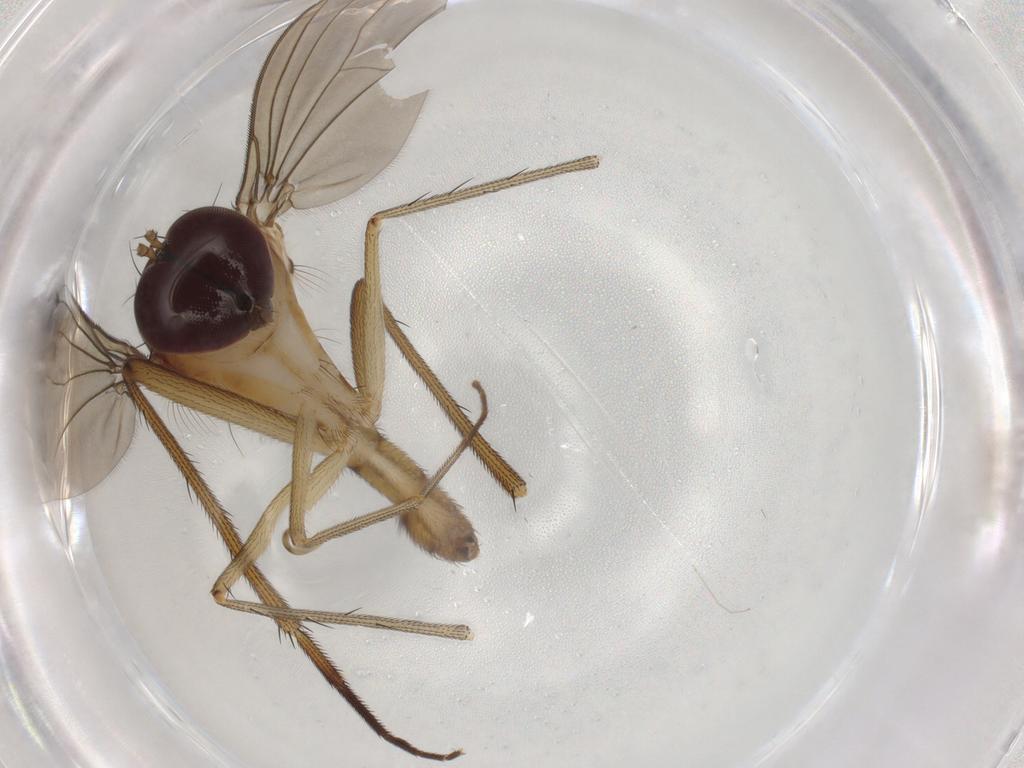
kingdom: Animalia
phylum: Arthropoda
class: Insecta
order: Diptera
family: Dolichopodidae
